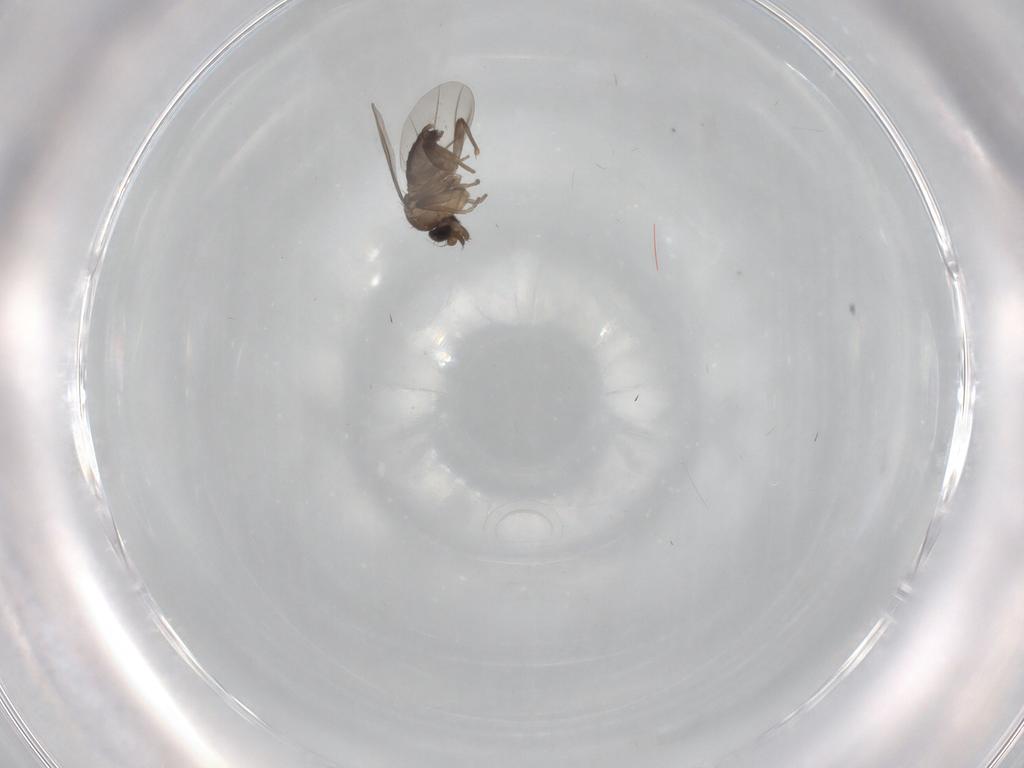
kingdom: Animalia
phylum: Arthropoda
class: Insecta
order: Diptera
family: Chironomidae
